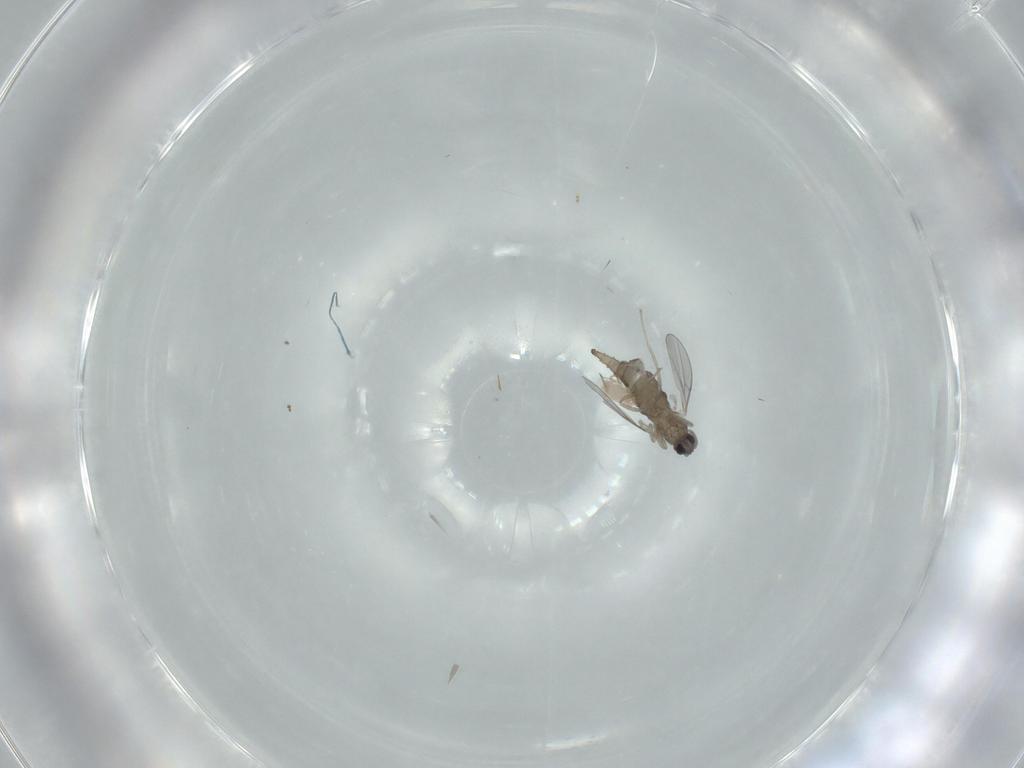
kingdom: Animalia
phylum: Arthropoda
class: Insecta
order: Diptera
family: Cecidomyiidae
